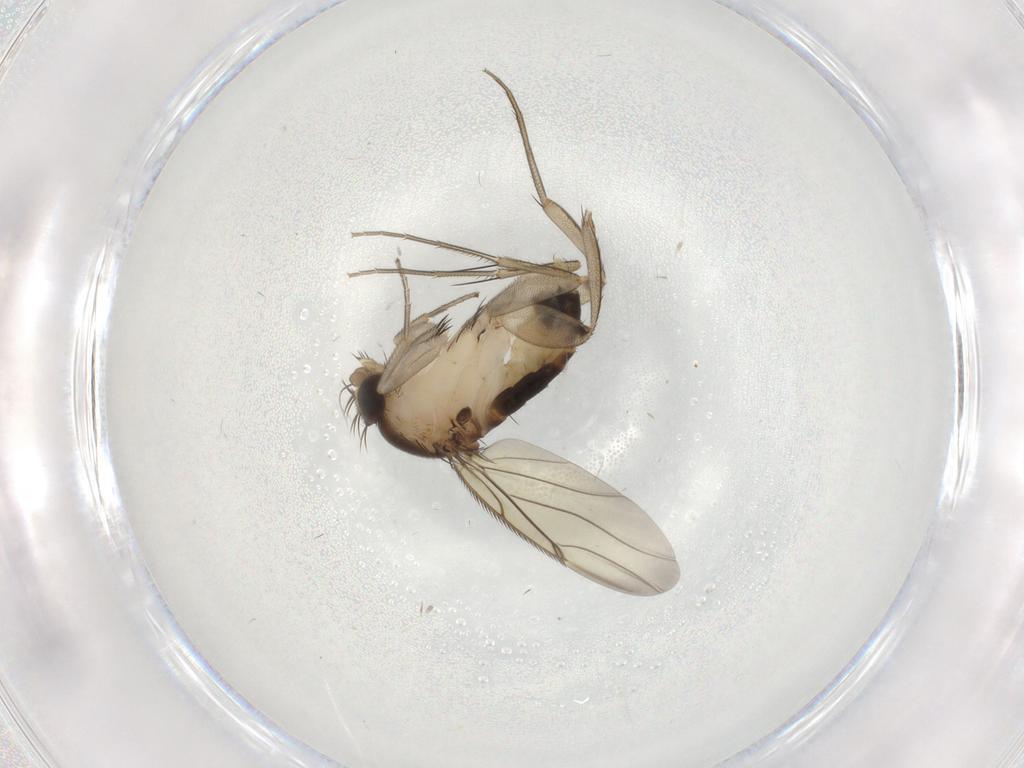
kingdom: Animalia
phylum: Arthropoda
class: Insecta
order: Diptera
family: Phoridae
